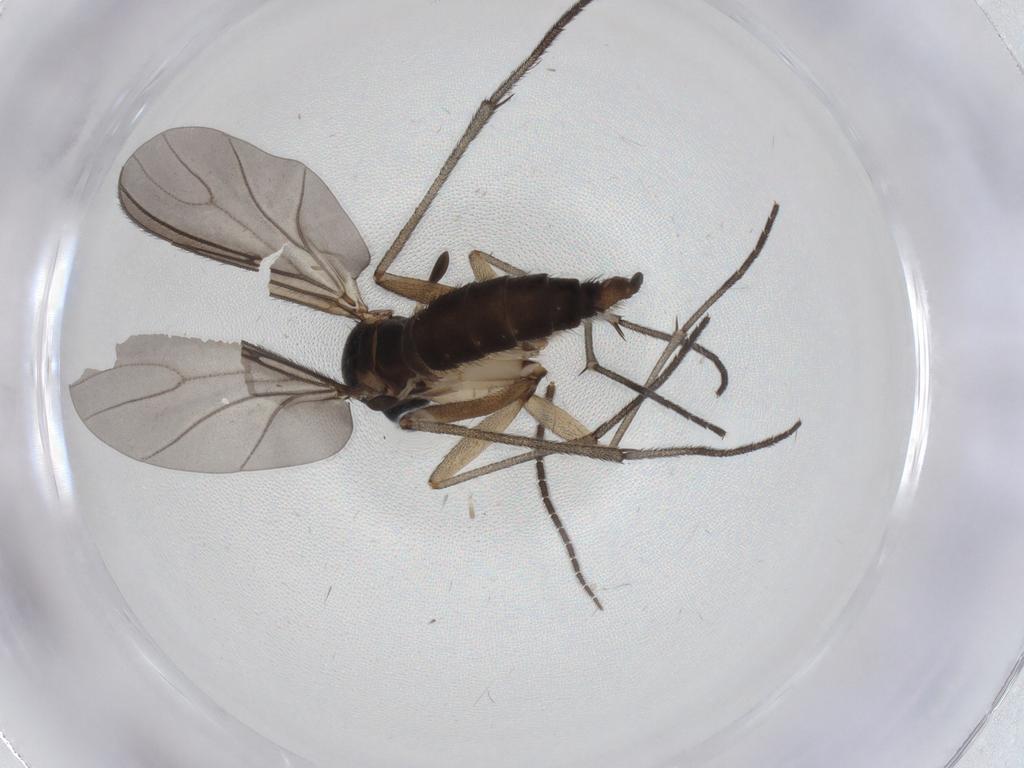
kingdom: Animalia
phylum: Arthropoda
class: Insecta
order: Diptera
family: Sciaridae
